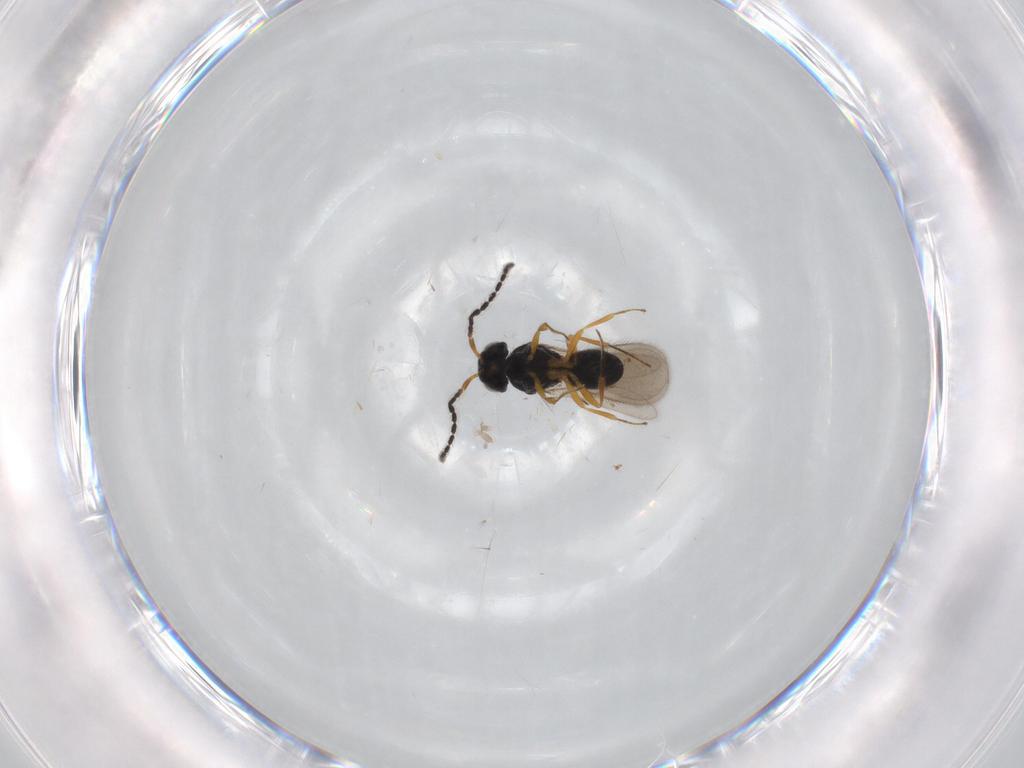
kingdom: Animalia
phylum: Arthropoda
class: Insecta
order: Hymenoptera
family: Scelionidae
